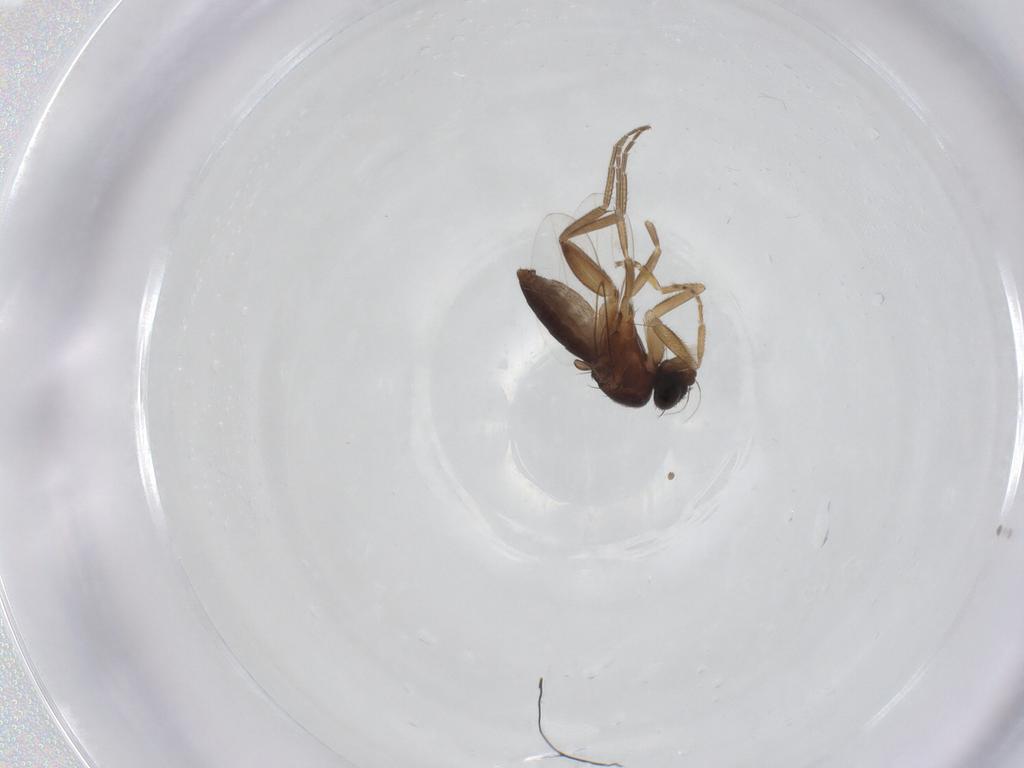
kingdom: Animalia
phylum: Arthropoda
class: Insecta
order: Diptera
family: Phoridae
